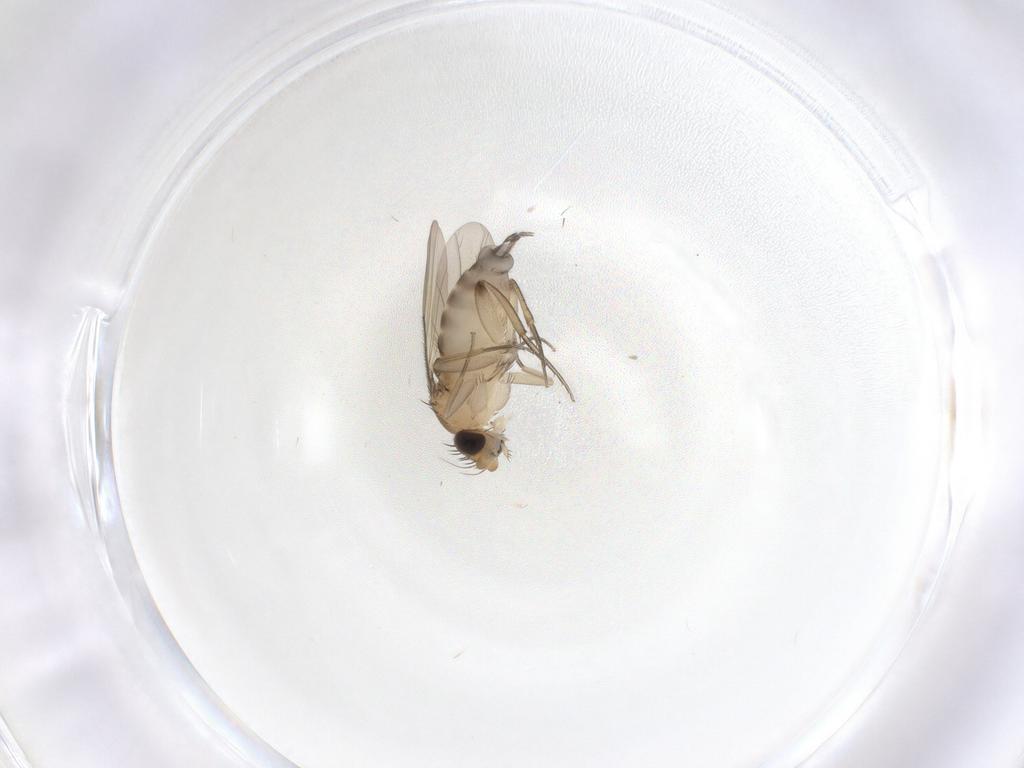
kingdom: Animalia
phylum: Arthropoda
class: Insecta
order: Diptera
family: Phoridae
